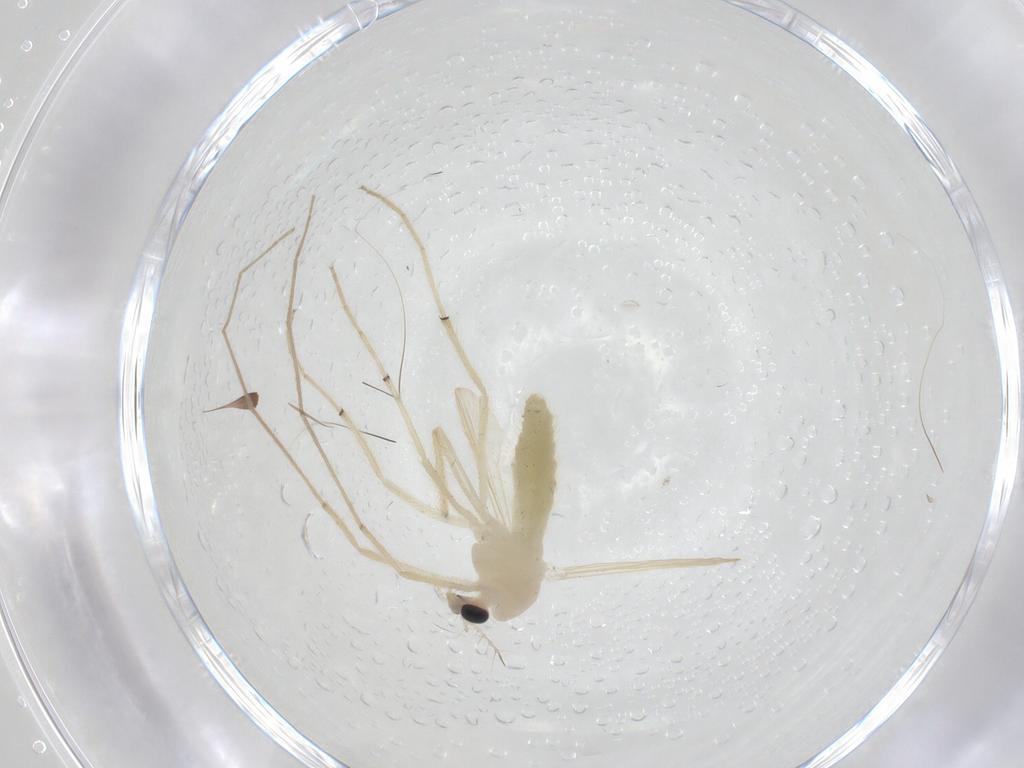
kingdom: Animalia
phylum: Arthropoda
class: Insecta
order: Diptera
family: Chironomidae
